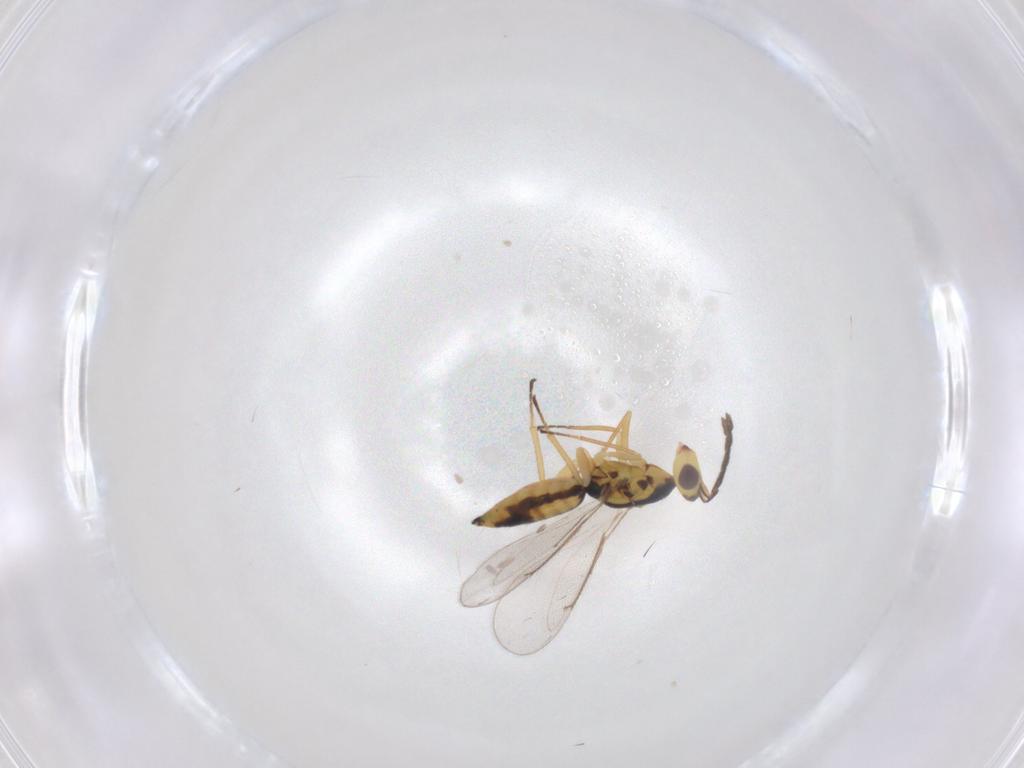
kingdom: Animalia
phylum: Arthropoda
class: Insecta
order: Hymenoptera
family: Eulophidae
